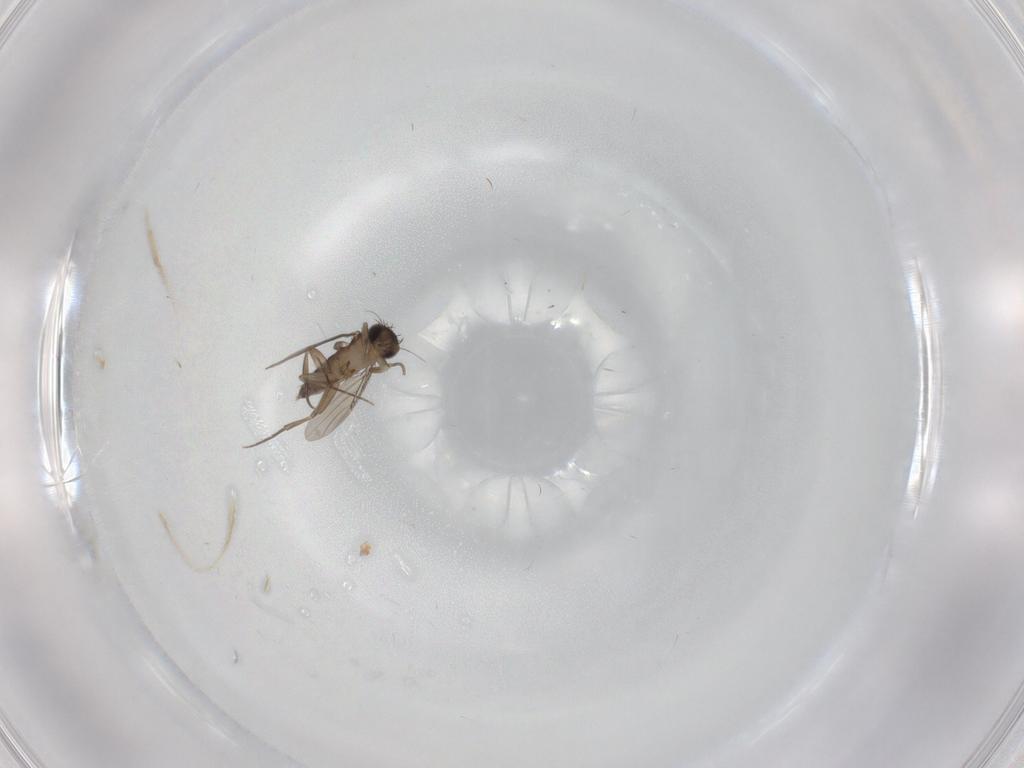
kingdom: Animalia
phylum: Arthropoda
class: Insecta
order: Diptera
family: Phoridae
